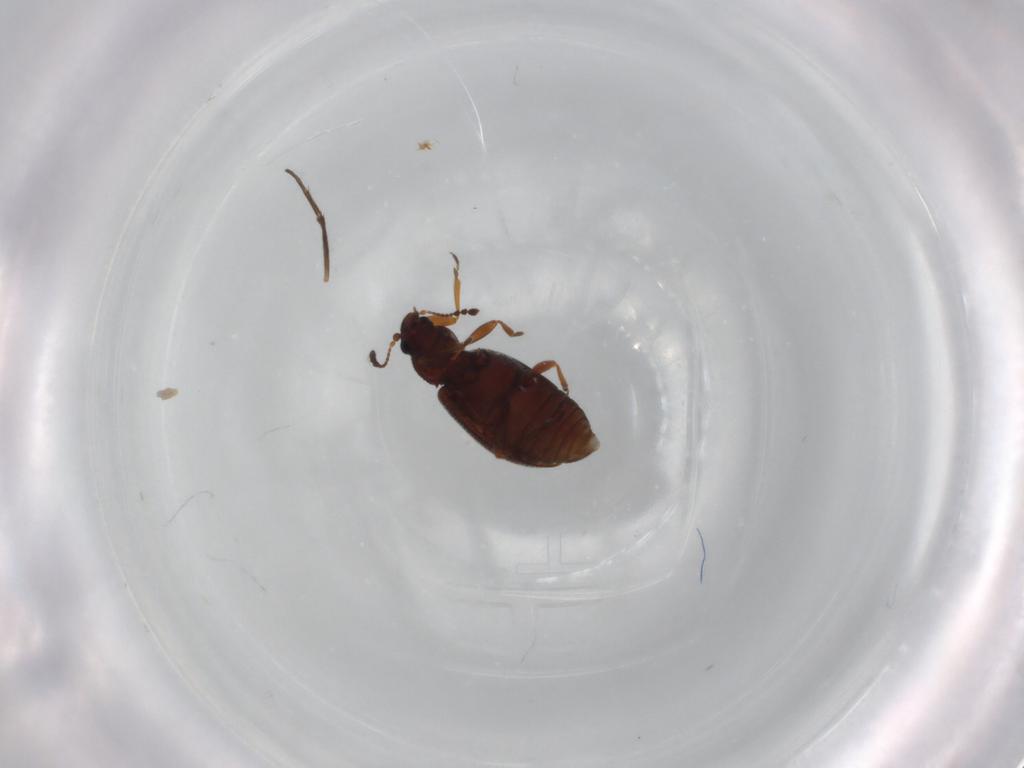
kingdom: Animalia
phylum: Arthropoda
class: Insecta
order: Coleoptera
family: Latridiidae
